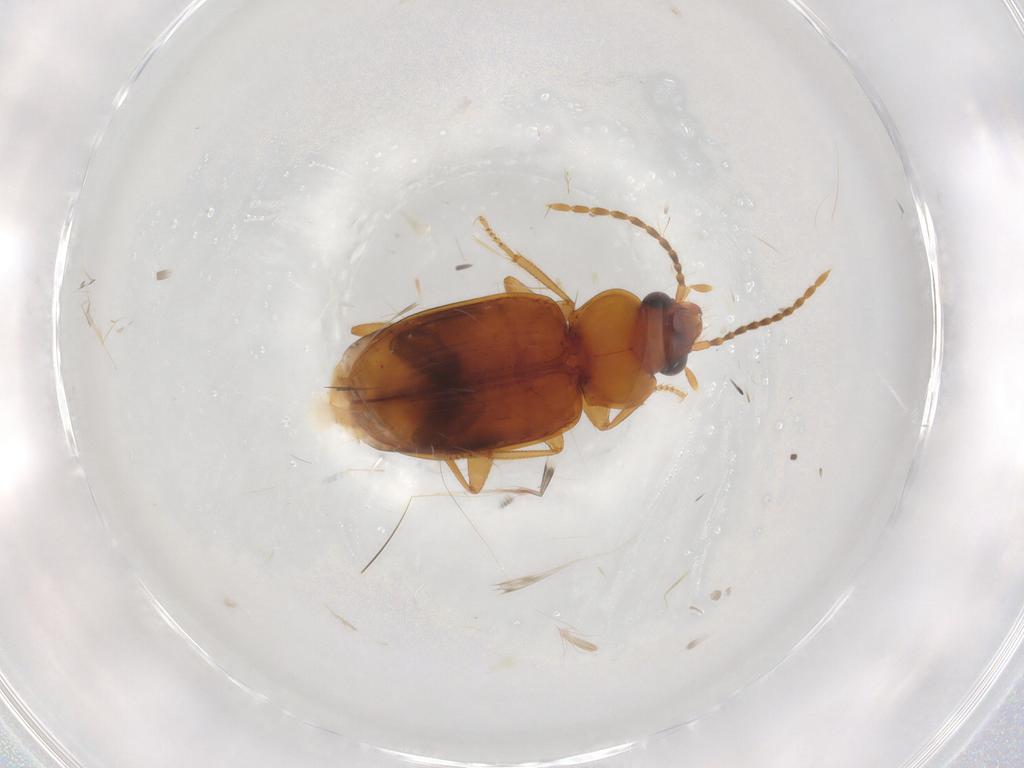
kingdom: Animalia
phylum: Arthropoda
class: Insecta
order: Coleoptera
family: Carabidae
